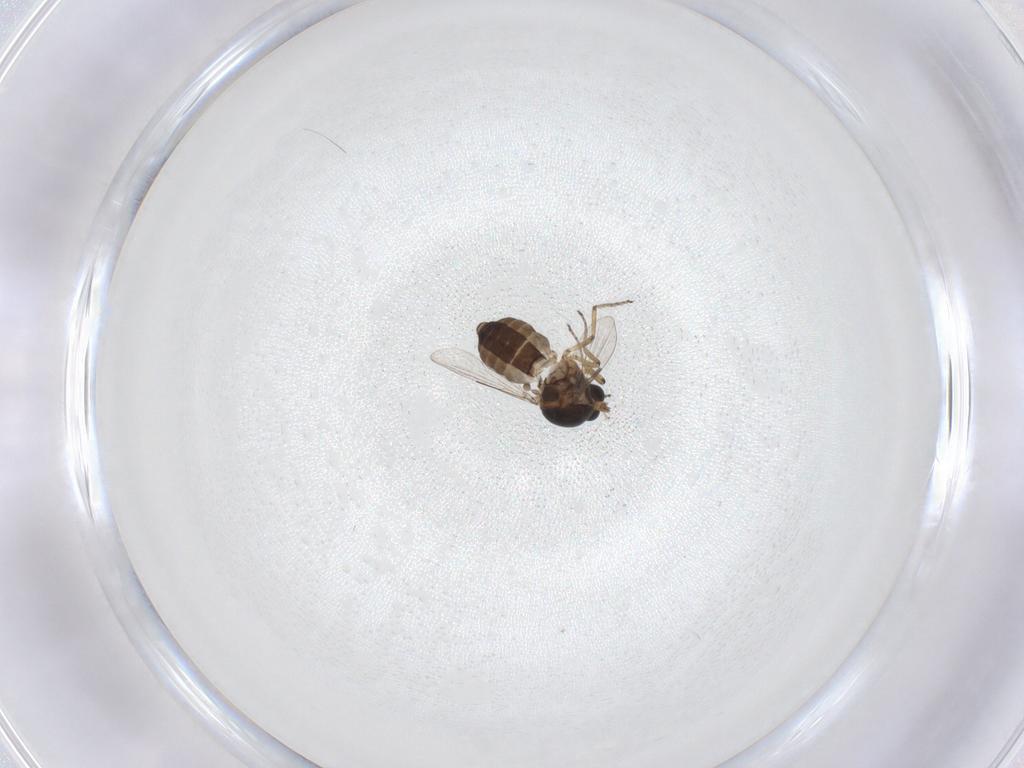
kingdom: Animalia
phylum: Arthropoda
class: Insecta
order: Diptera
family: Ceratopogonidae
